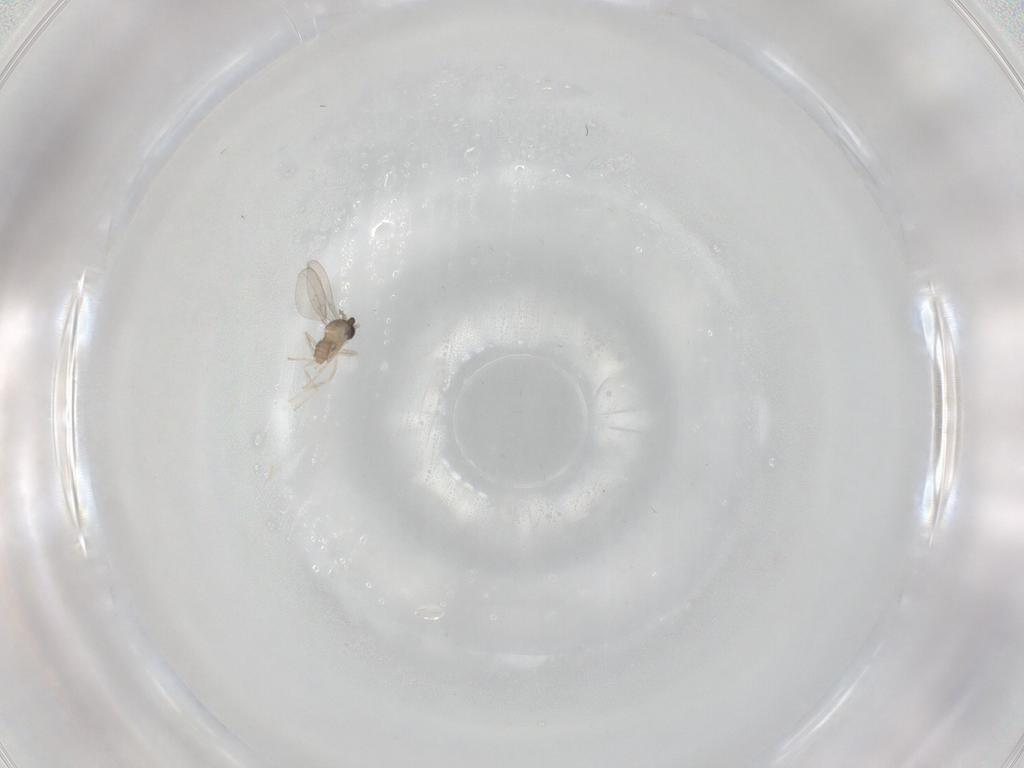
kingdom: Animalia
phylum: Arthropoda
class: Insecta
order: Diptera
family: Cecidomyiidae
